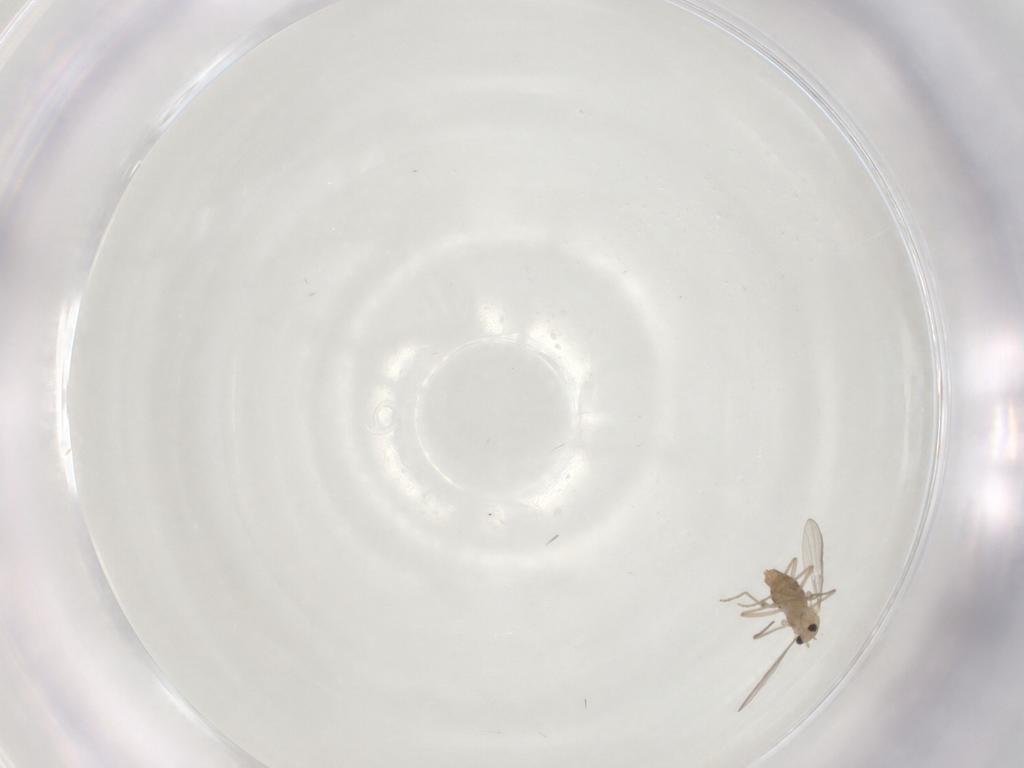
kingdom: Animalia
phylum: Arthropoda
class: Insecta
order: Diptera
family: Chironomidae
